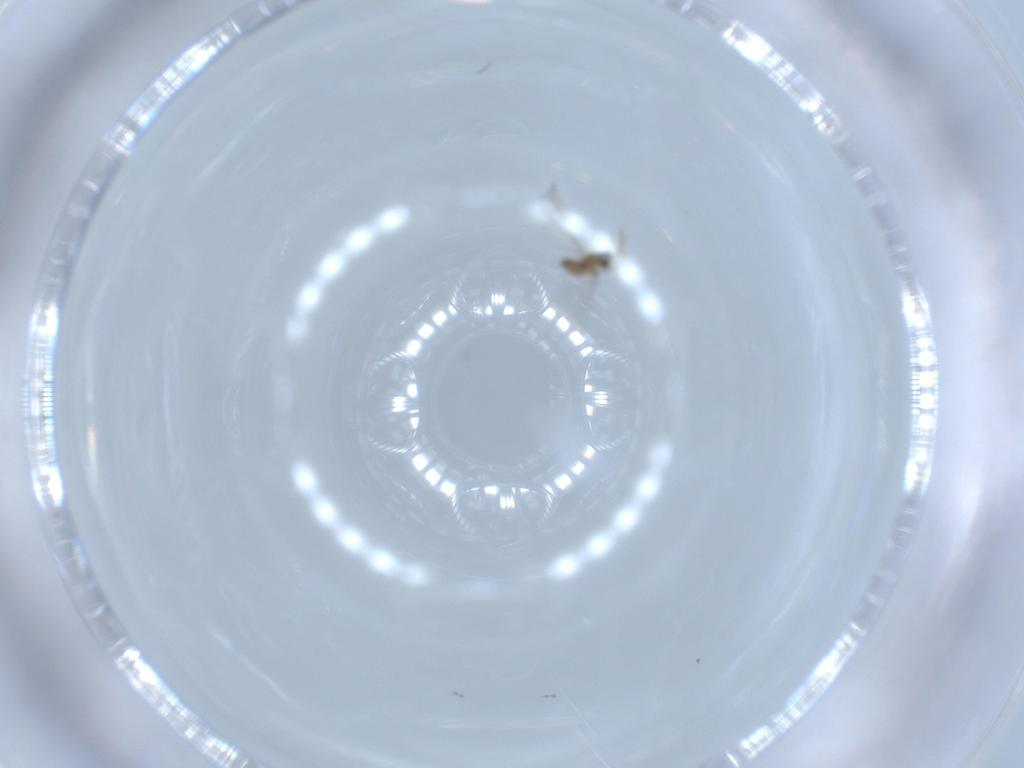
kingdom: Animalia
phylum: Arthropoda
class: Insecta
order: Diptera
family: Cecidomyiidae
